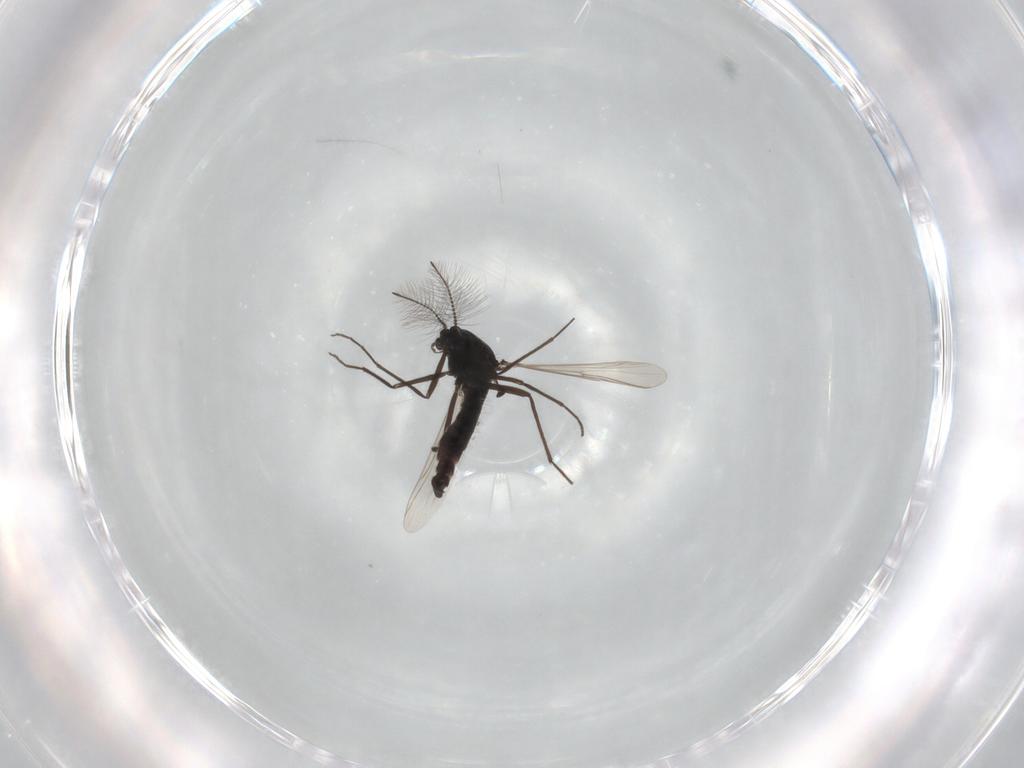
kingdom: Animalia
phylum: Arthropoda
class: Insecta
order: Diptera
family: Chironomidae
